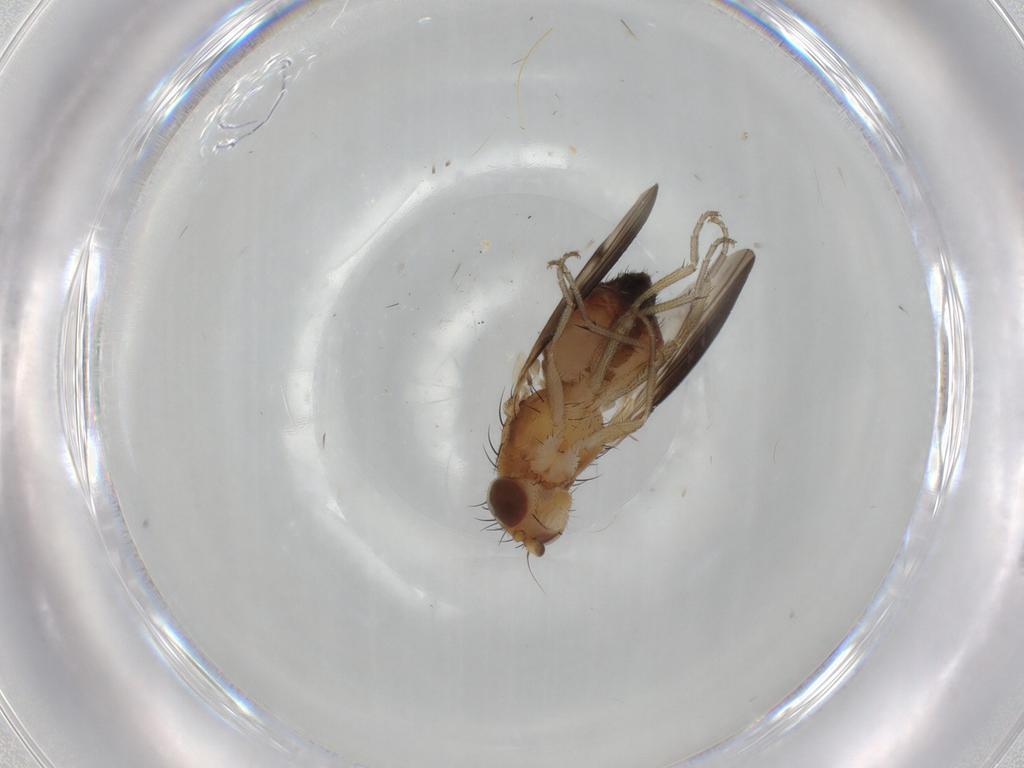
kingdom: Animalia
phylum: Arthropoda
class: Insecta
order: Diptera
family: Heleomyzidae
